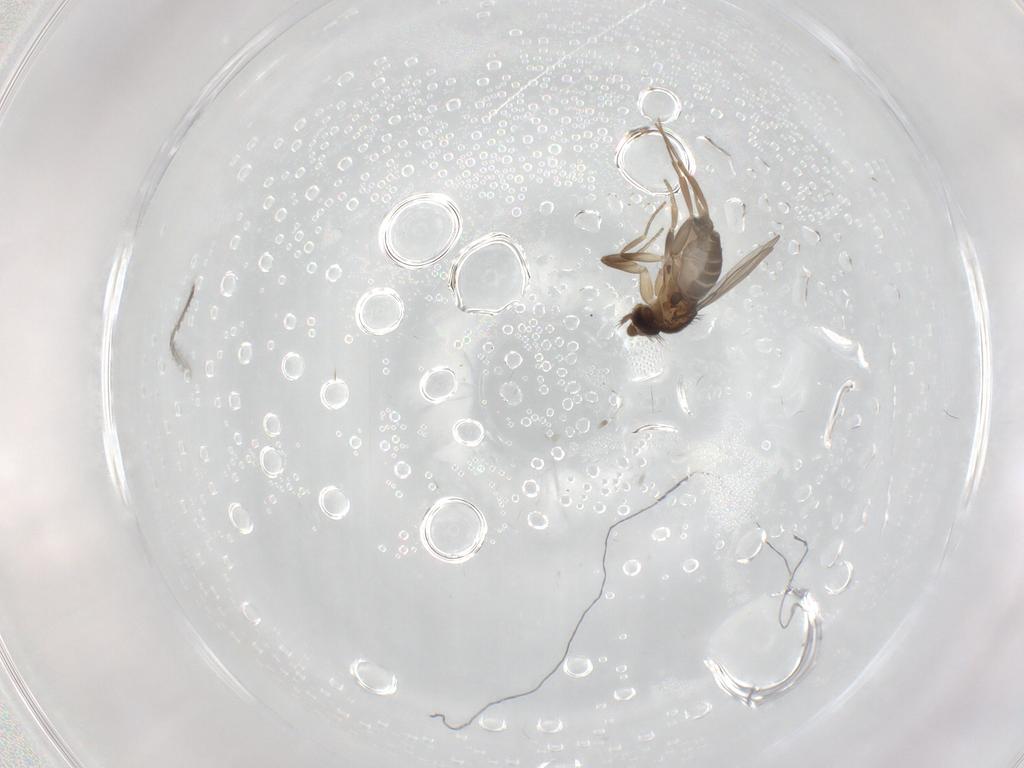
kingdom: Animalia
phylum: Arthropoda
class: Insecta
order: Diptera
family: Phoridae
